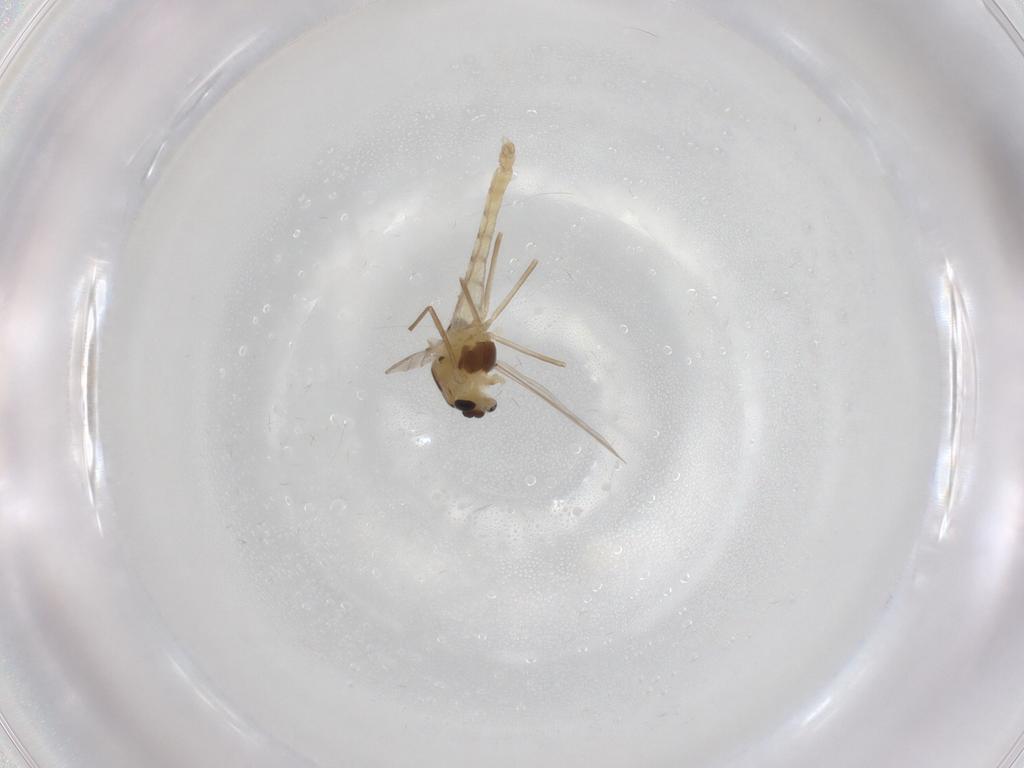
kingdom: Animalia
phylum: Arthropoda
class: Insecta
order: Diptera
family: Chironomidae
